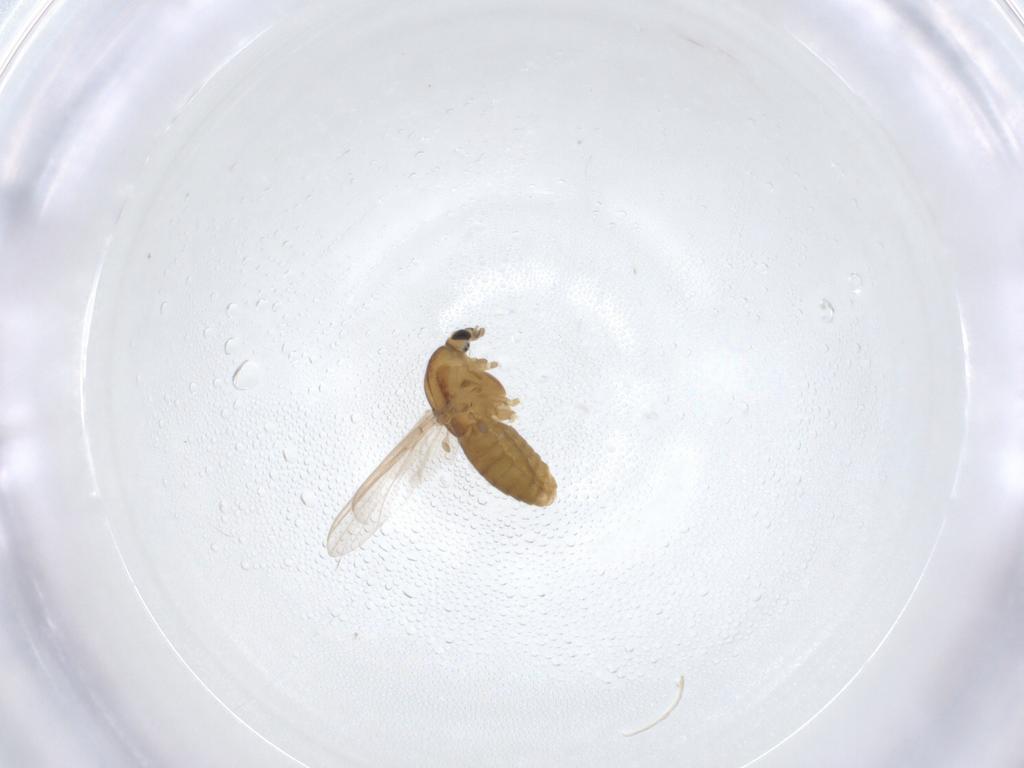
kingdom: Animalia
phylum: Arthropoda
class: Insecta
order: Diptera
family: Chironomidae
